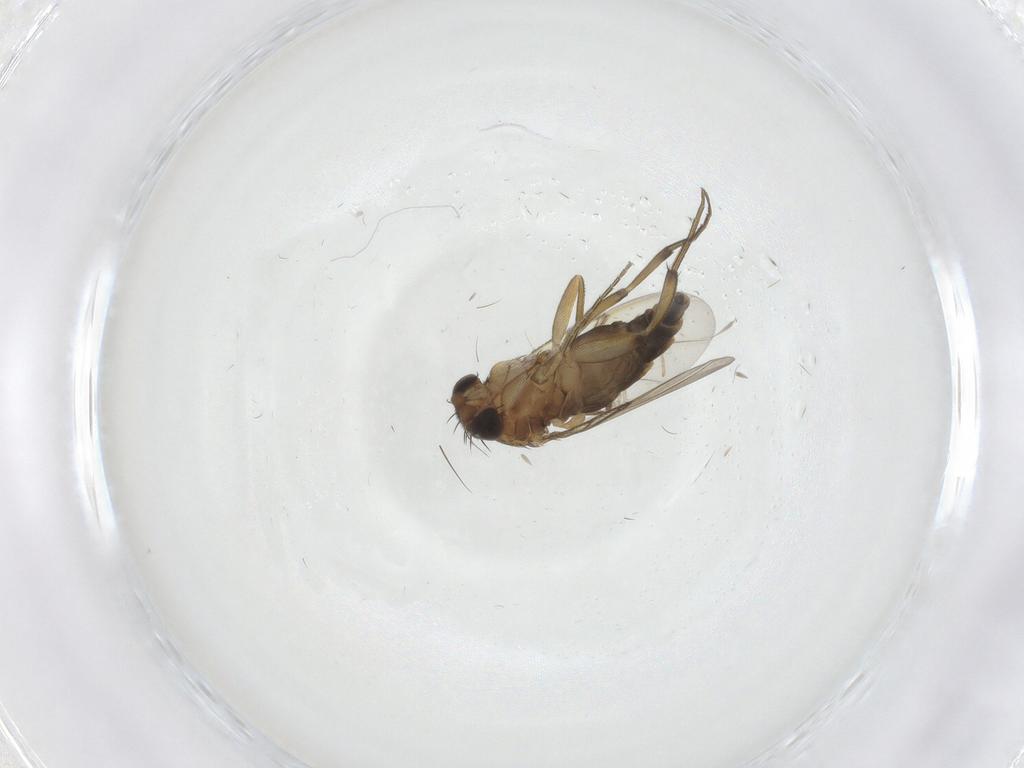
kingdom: Animalia
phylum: Arthropoda
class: Insecta
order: Diptera
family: Phoridae
